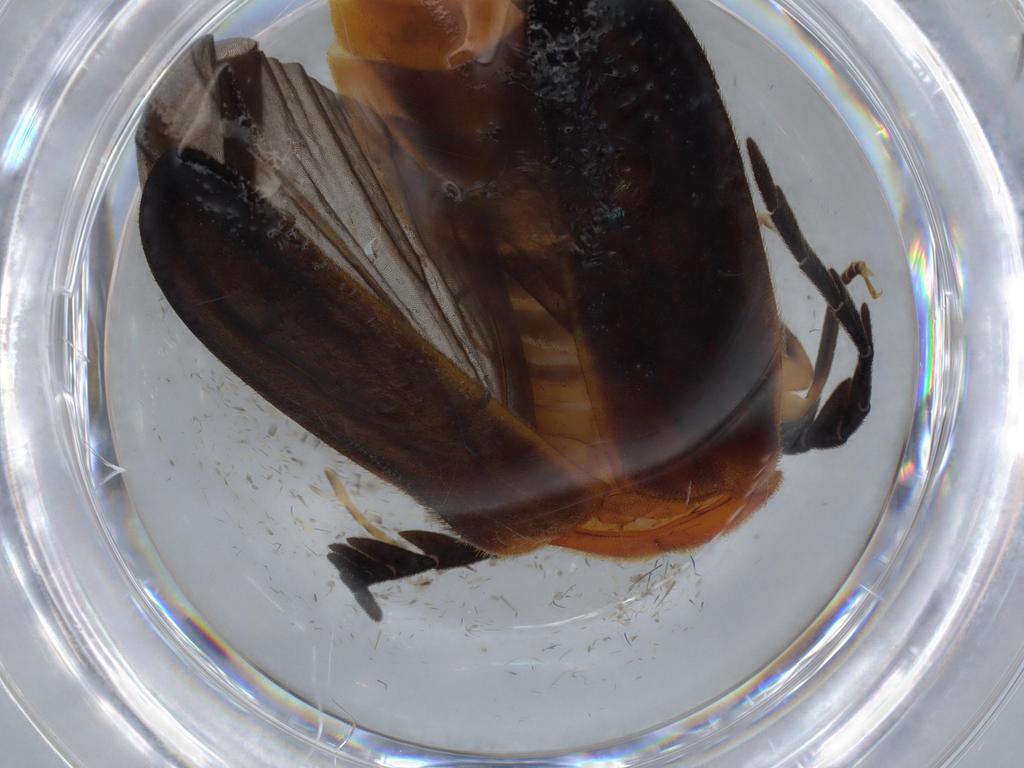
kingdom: Animalia
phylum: Arthropoda
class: Insecta
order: Coleoptera
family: Lampyridae
